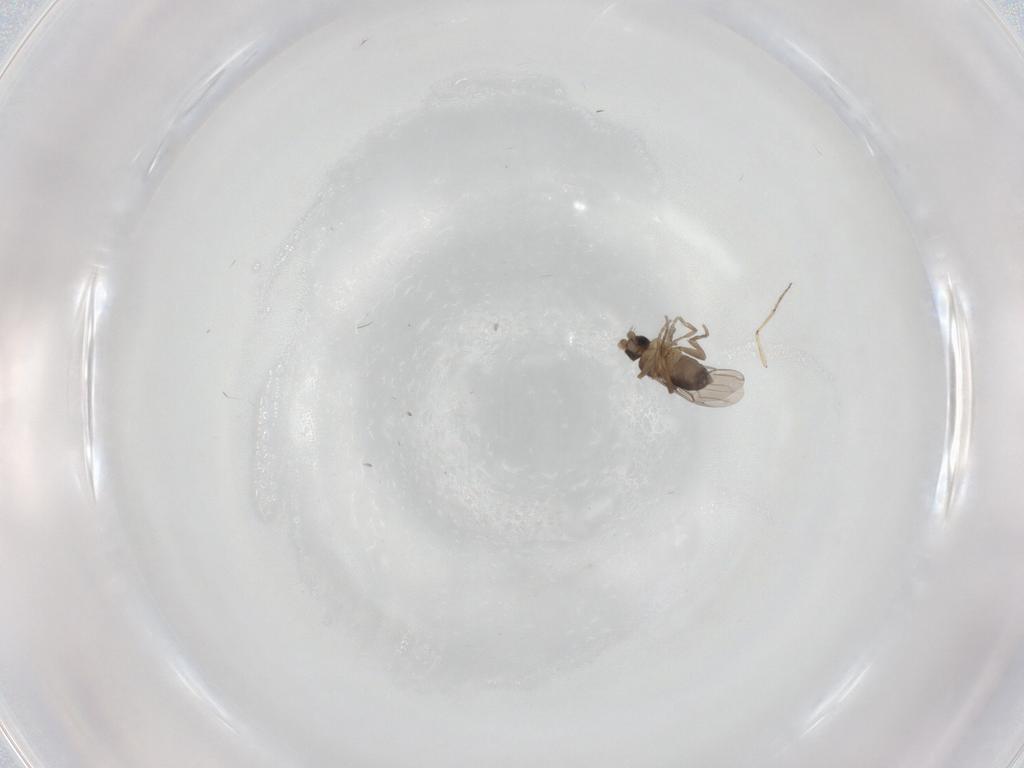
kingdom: Animalia
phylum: Arthropoda
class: Insecta
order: Diptera
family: Phoridae
